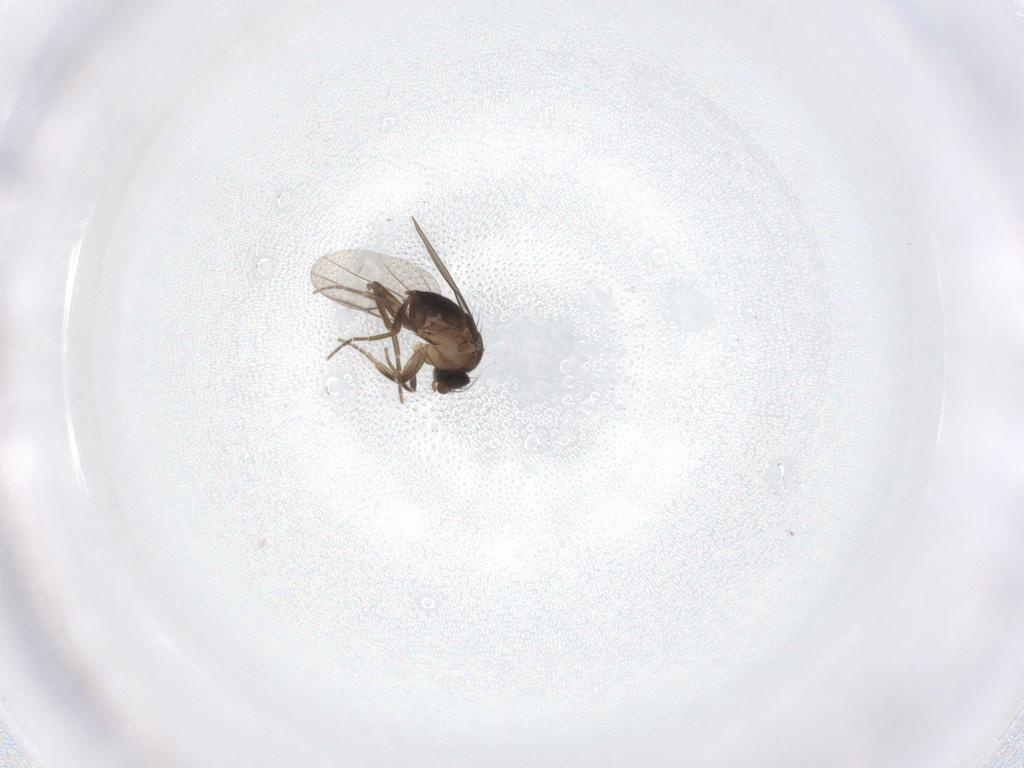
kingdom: Animalia
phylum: Arthropoda
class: Insecta
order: Diptera
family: Phoridae
